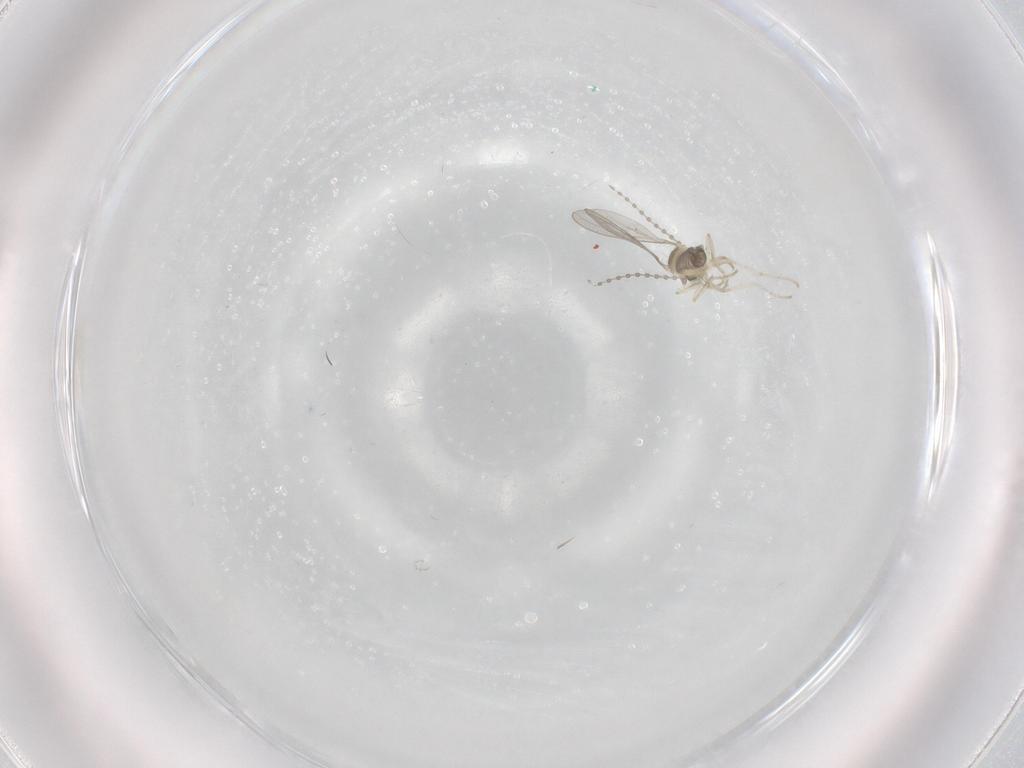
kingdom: Animalia
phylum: Arthropoda
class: Insecta
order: Diptera
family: Cecidomyiidae
